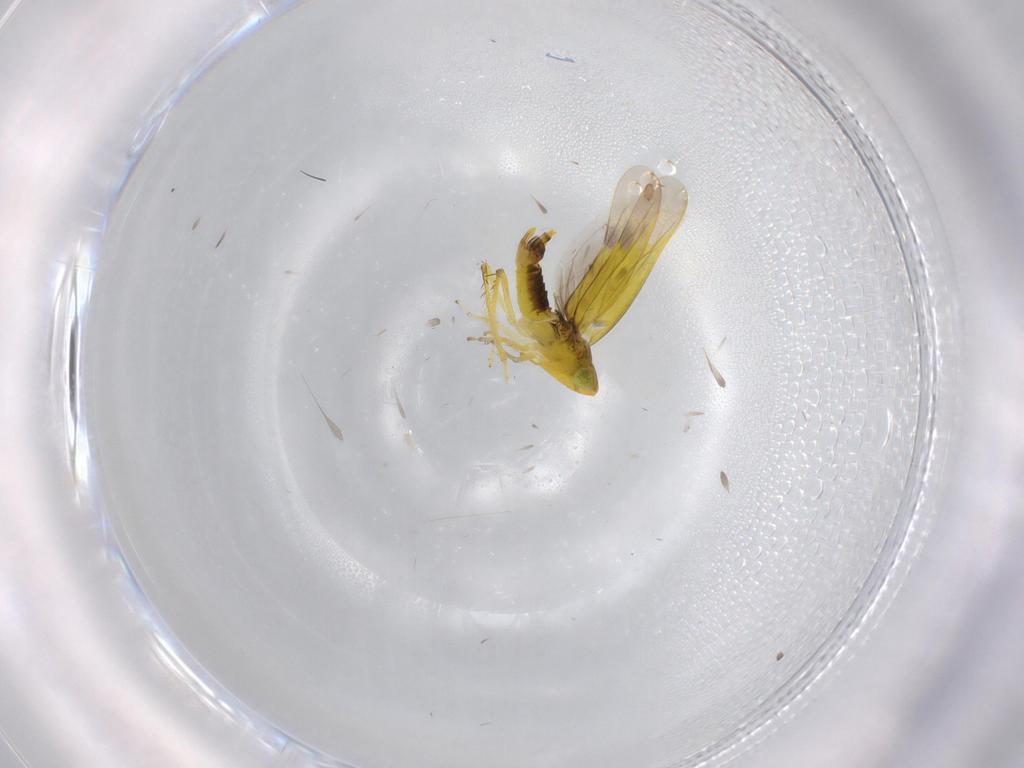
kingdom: Animalia
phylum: Arthropoda
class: Insecta
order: Hemiptera
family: Cicadellidae
